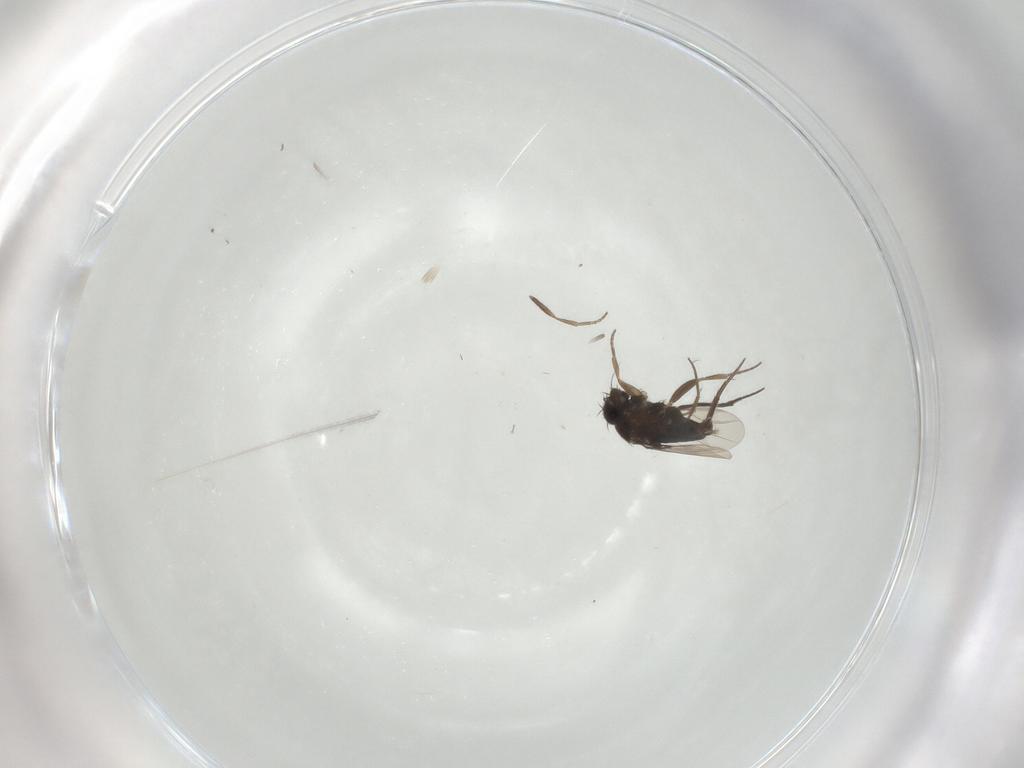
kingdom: Animalia
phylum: Arthropoda
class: Insecta
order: Diptera
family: Phoridae
